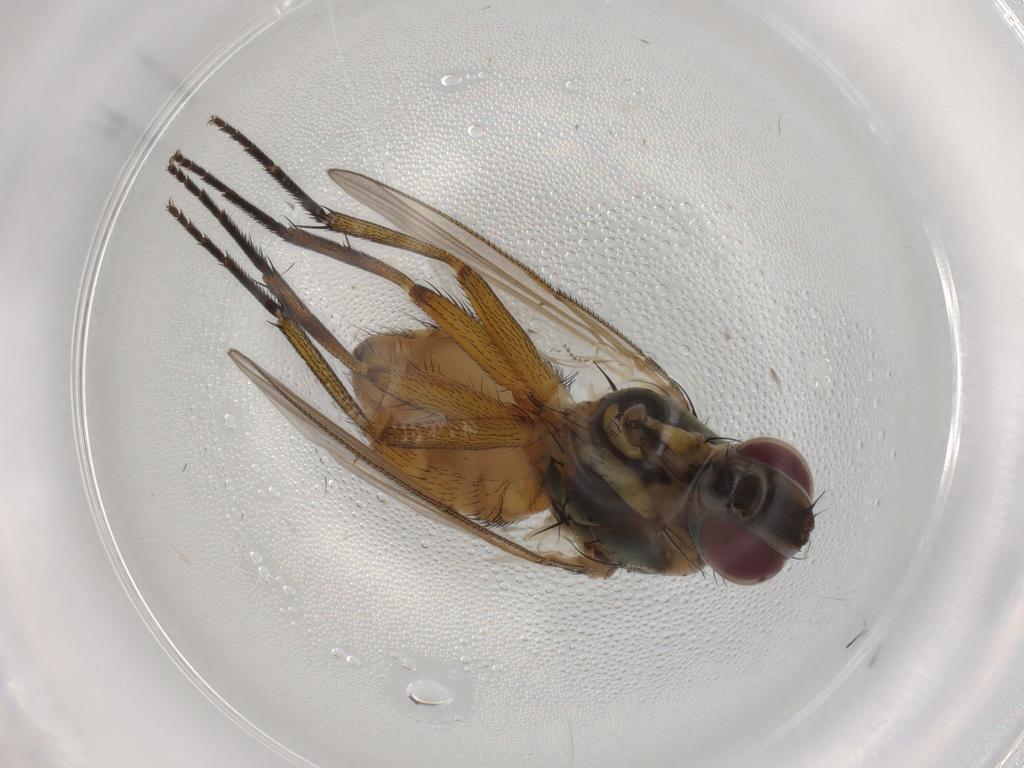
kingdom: Animalia
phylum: Arthropoda
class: Insecta
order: Diptera
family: Muscidae
